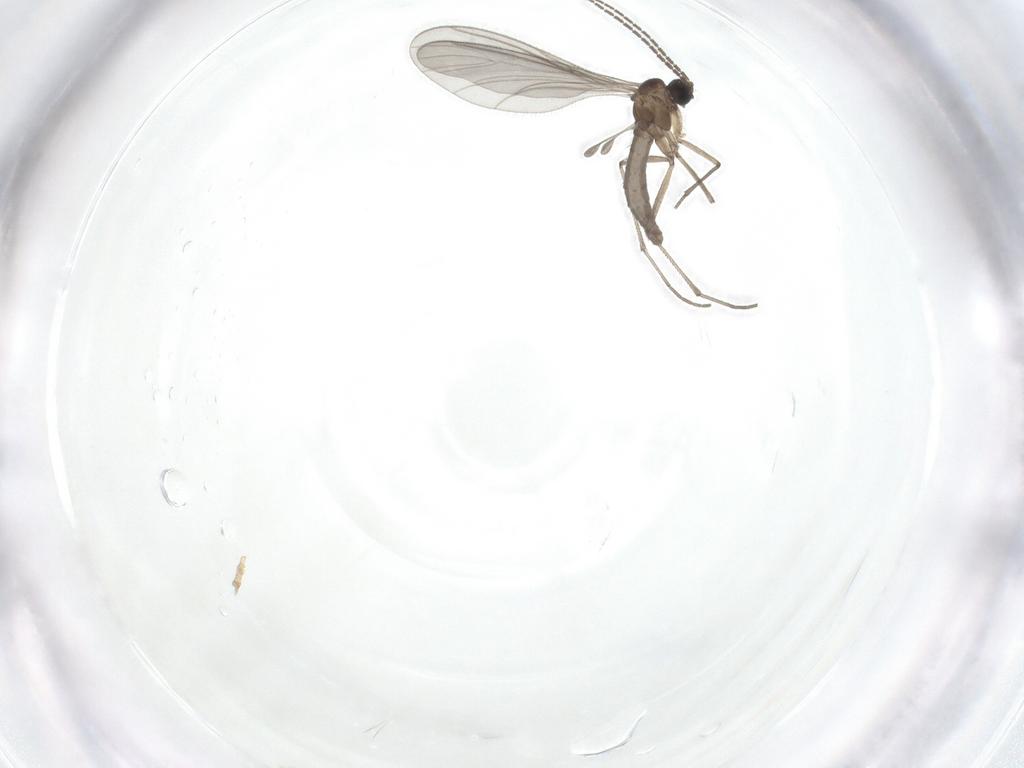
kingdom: Animalia
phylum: Arthropoda
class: Insecta
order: Diptera
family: Sciaridae
